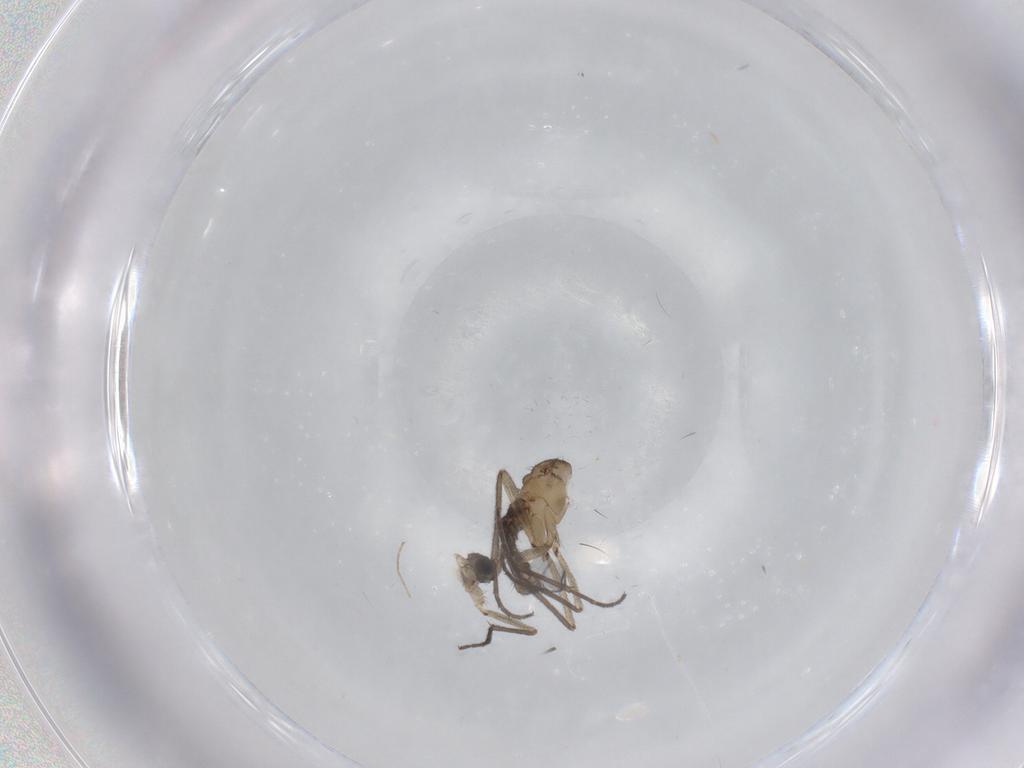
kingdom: Animalia
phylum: Arthropoda
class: Insecta
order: Diptera
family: Sciaridae
